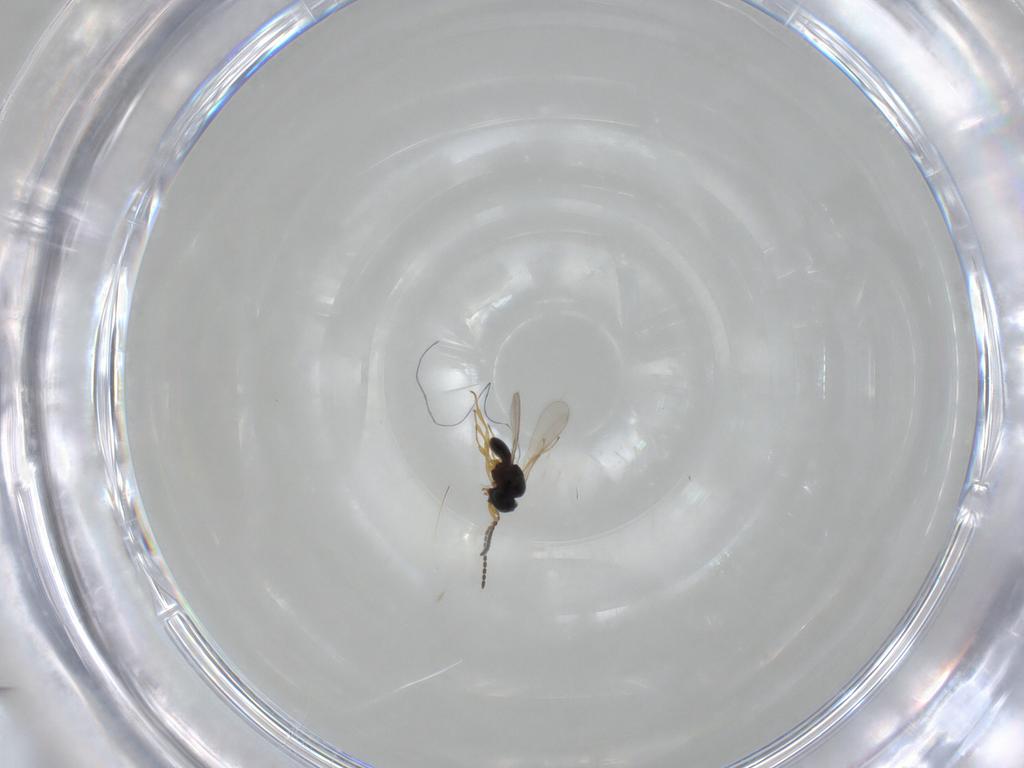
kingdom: Animalia
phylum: Arthropoda
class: Insecta
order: Hymenoptera
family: Scelionidae
